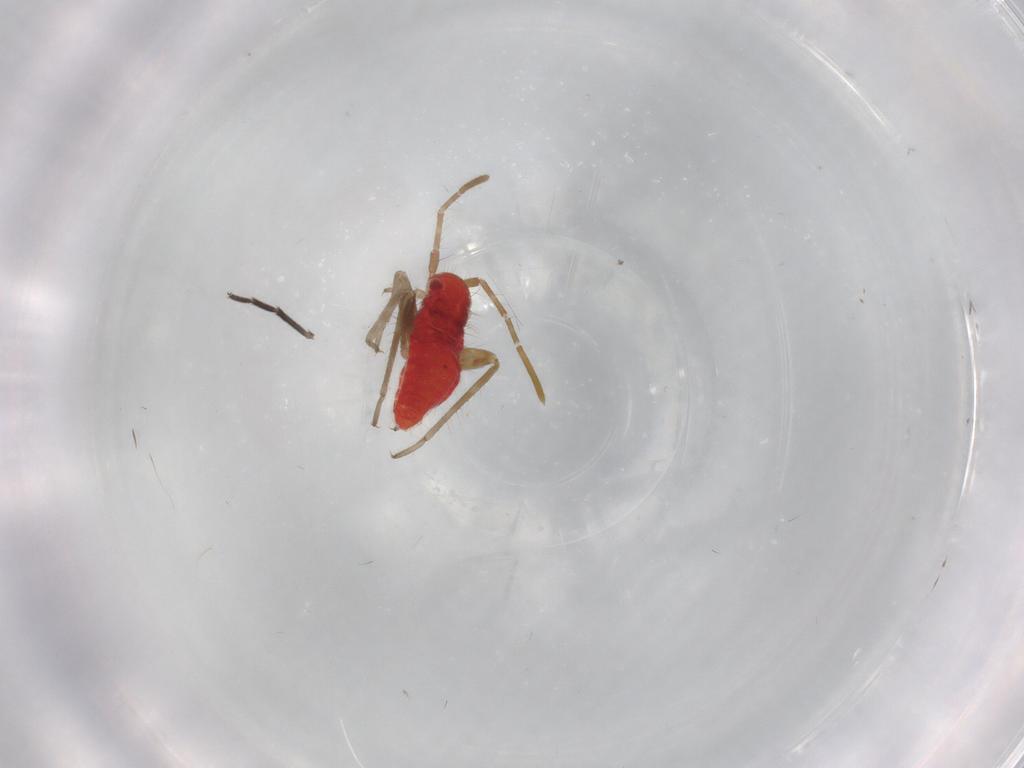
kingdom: Animalia
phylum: Arthropoda
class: Insecta
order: Hemiptera
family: Miridae
